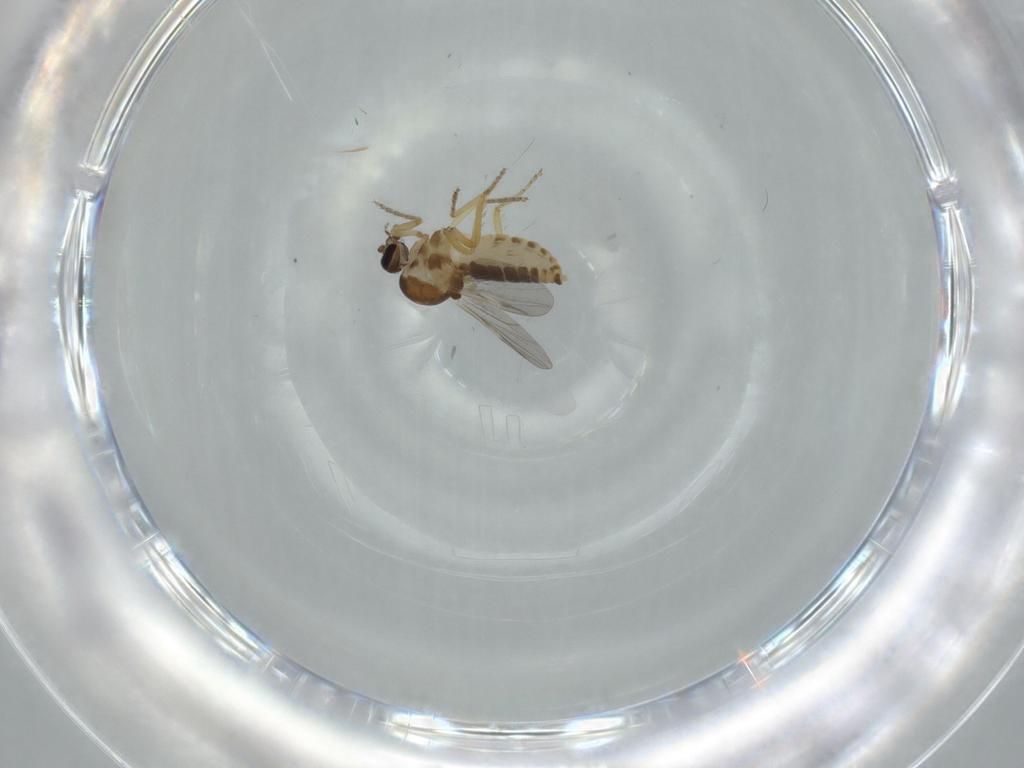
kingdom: Animalia
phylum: Arthropoda
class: Insecta
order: Diptera
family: Ceratopogonidae
